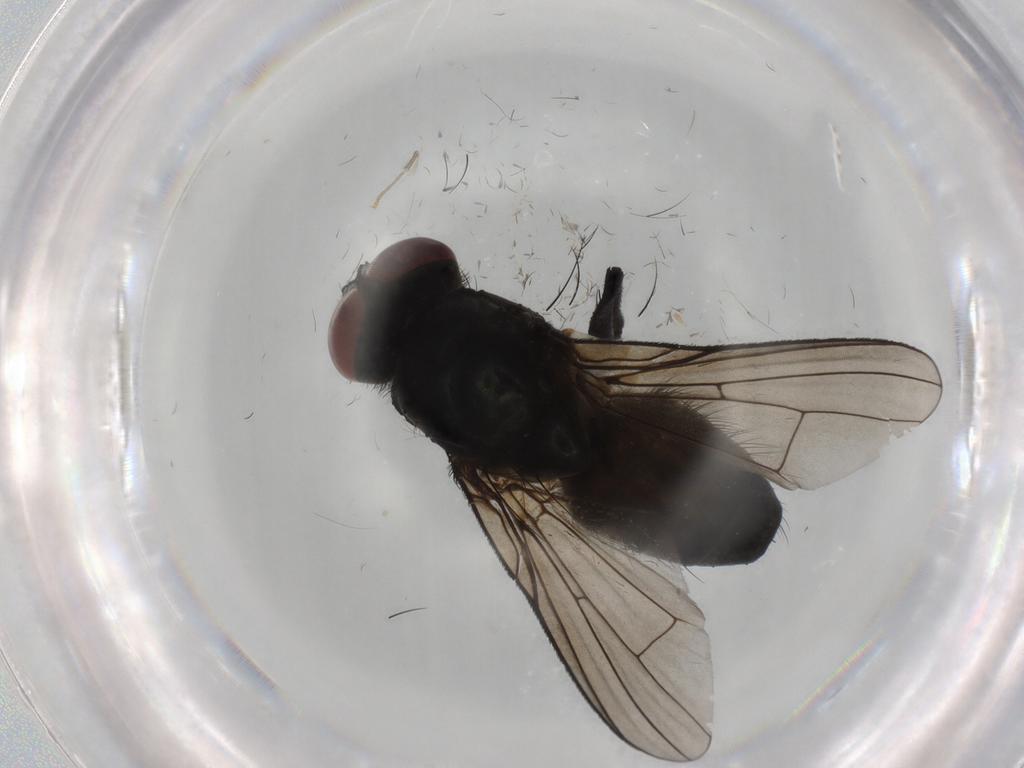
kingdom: Animalia
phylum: Arthropoda
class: Insecta
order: Diptera
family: Muscidae
